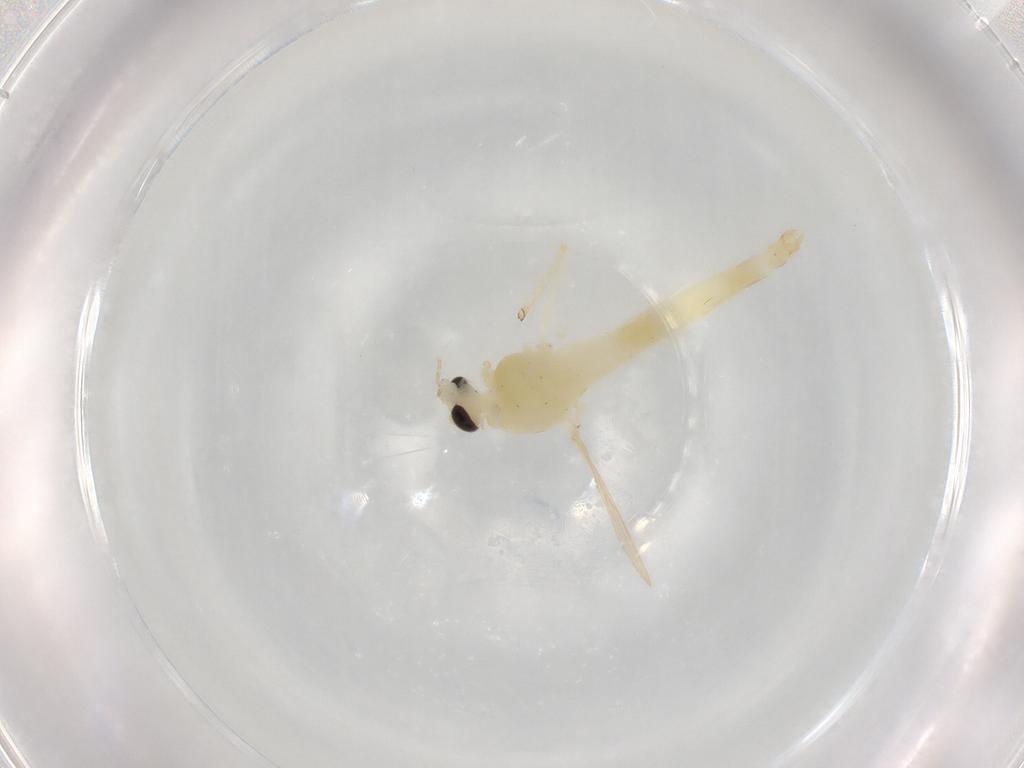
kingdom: Animalia
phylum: Arthropoda
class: Insecta
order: Diptera
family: Chironomidae
